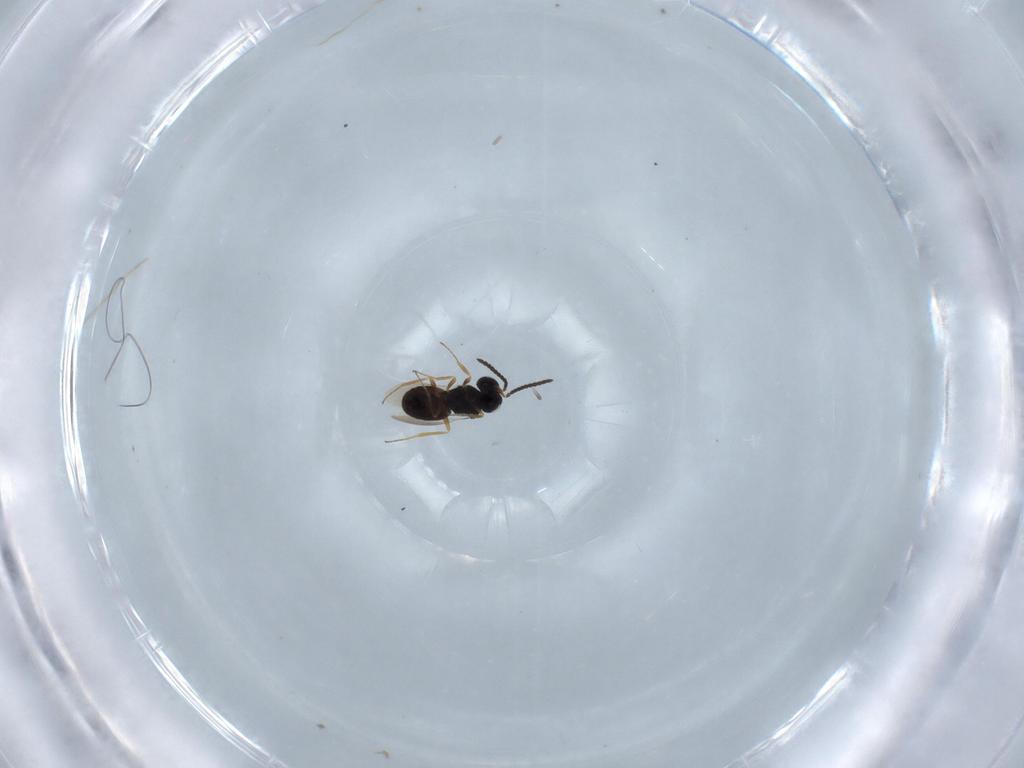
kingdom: Animalia
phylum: Arthropoda
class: Insecta
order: Hymenoptera
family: Scelionidae
